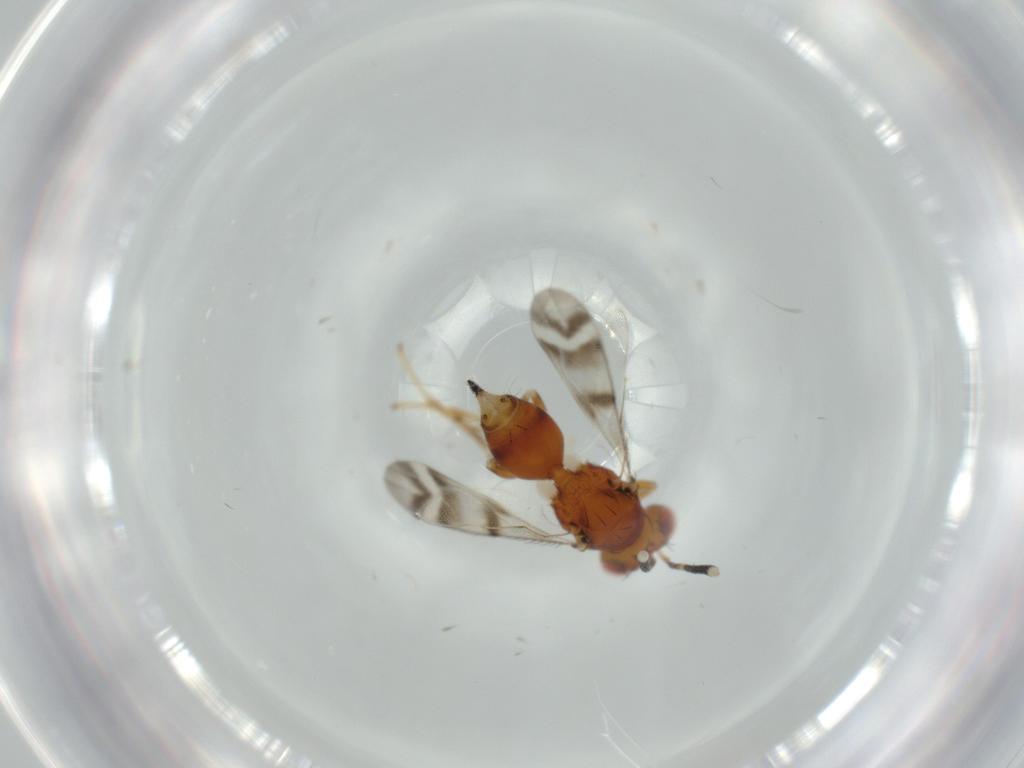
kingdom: Animalia
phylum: Arthropoda
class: Insecta
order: Hymenoptera
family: Diparidae
